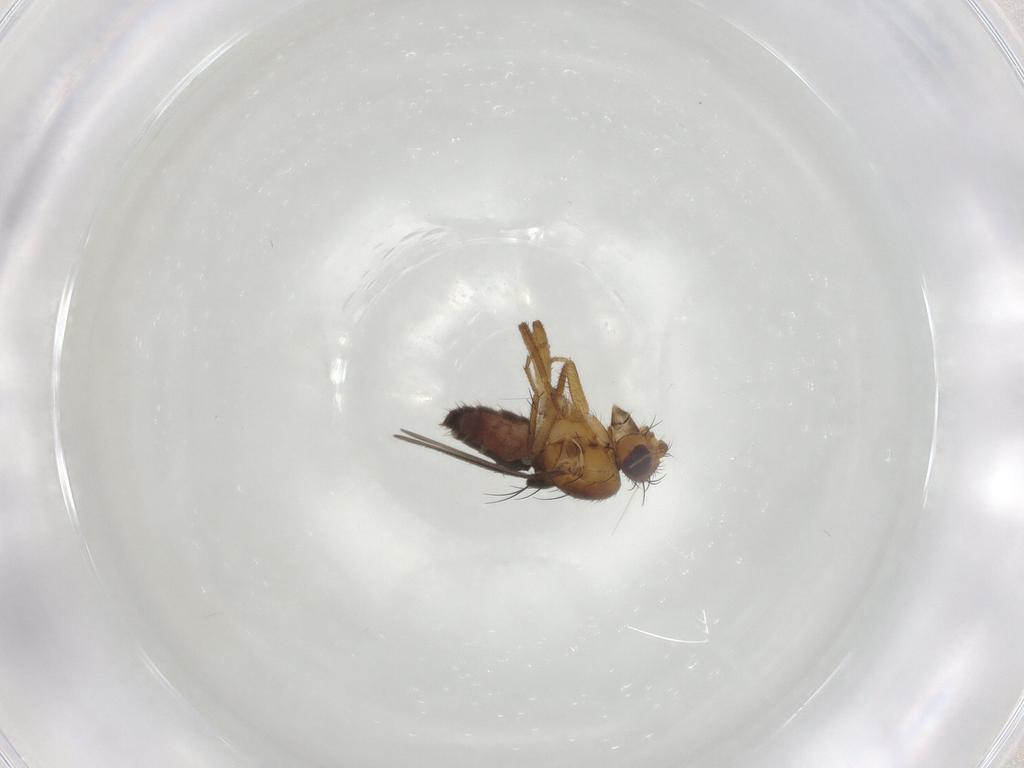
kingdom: Animalia
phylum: Arthropoda
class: Insecta
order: Diptera
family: Sphaeroceridae
